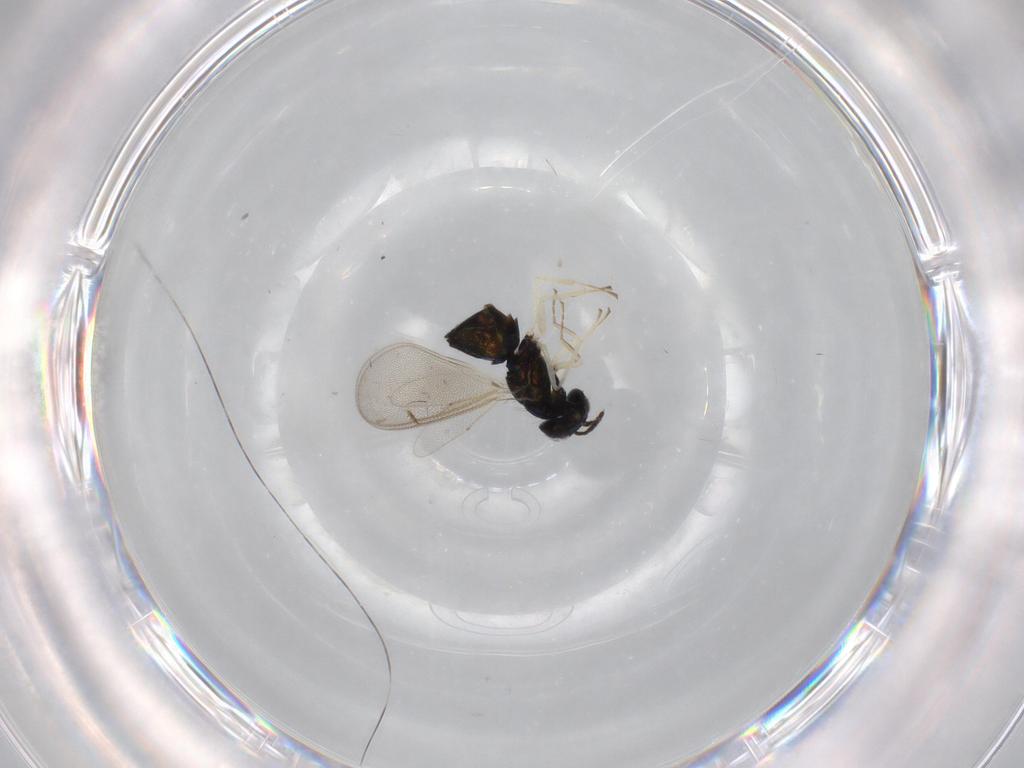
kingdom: Animalia
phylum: Arthropoda
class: Insecta
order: Hymenoptera
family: Eulophidae
